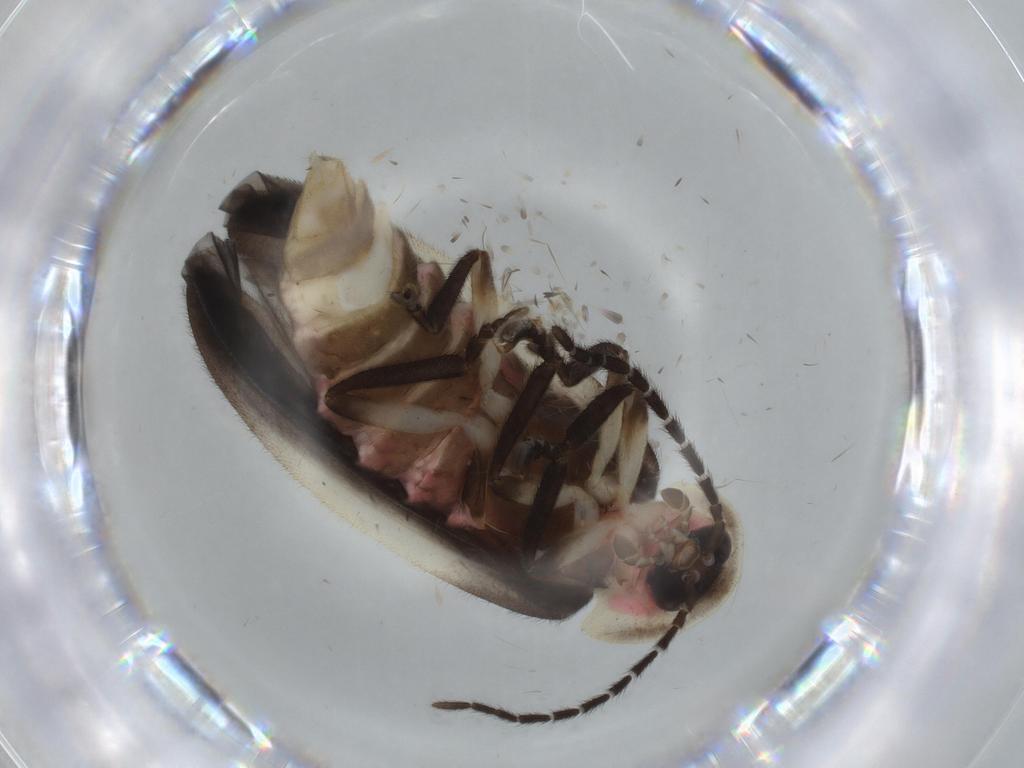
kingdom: Animalia
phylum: Arthropoda
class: Insecta
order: Coleoptera
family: Lampyridae
